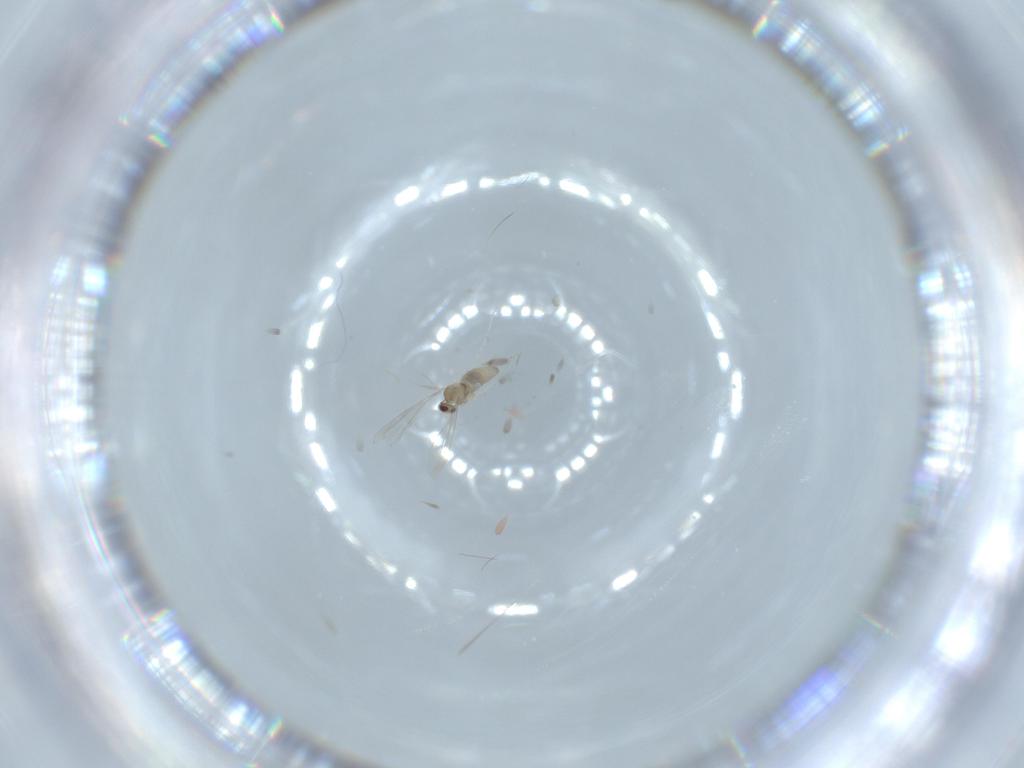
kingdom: Animalia
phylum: Arthropoda
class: Insecta
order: Diptera
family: Cecidomyiidae
